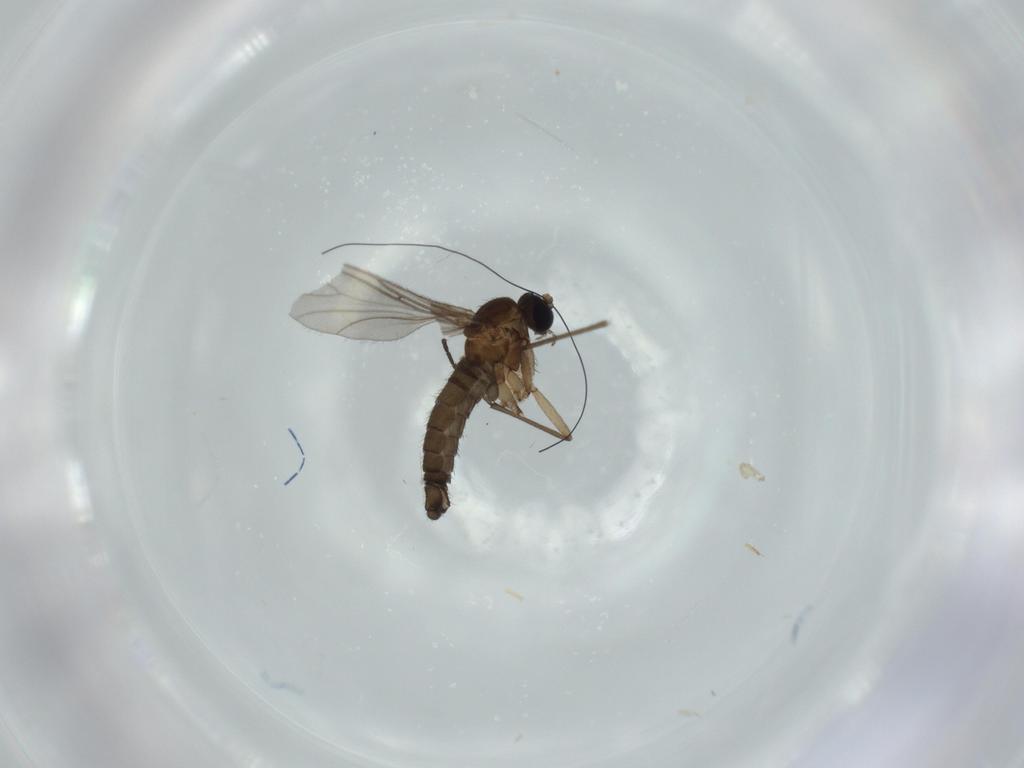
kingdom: Animalia
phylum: Arthropoda
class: Insecta
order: Diptera
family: Sciaridae
